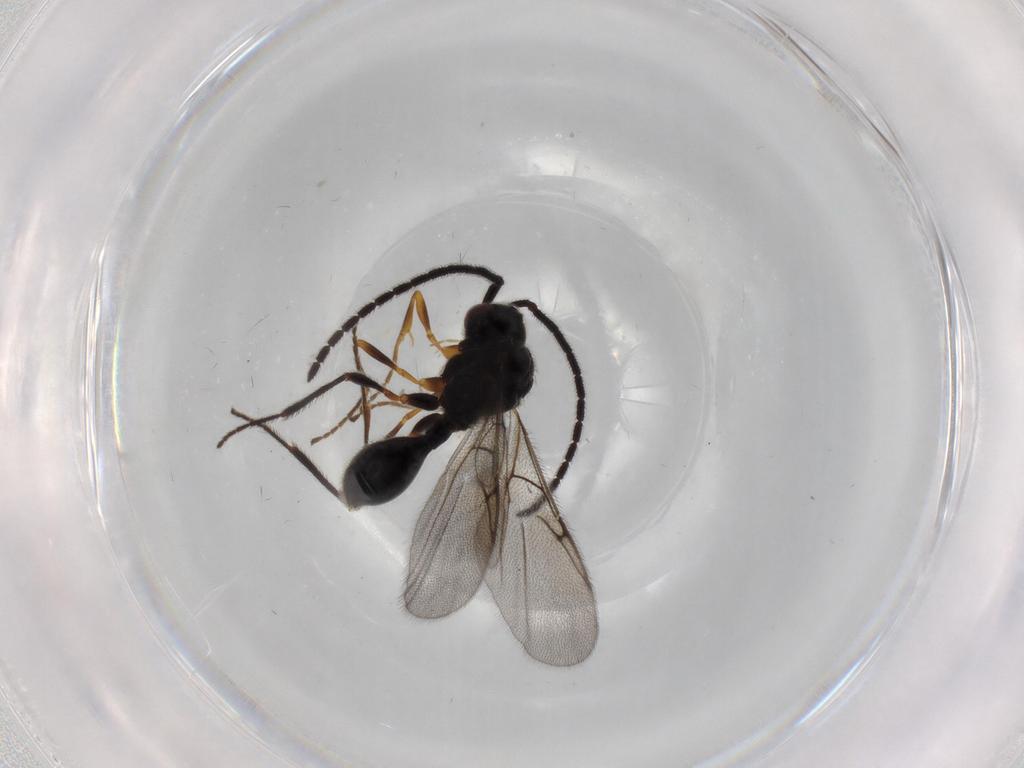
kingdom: Animalia
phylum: Arthropoda
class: Insecta
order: Hymenoptera
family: Diapriidae
